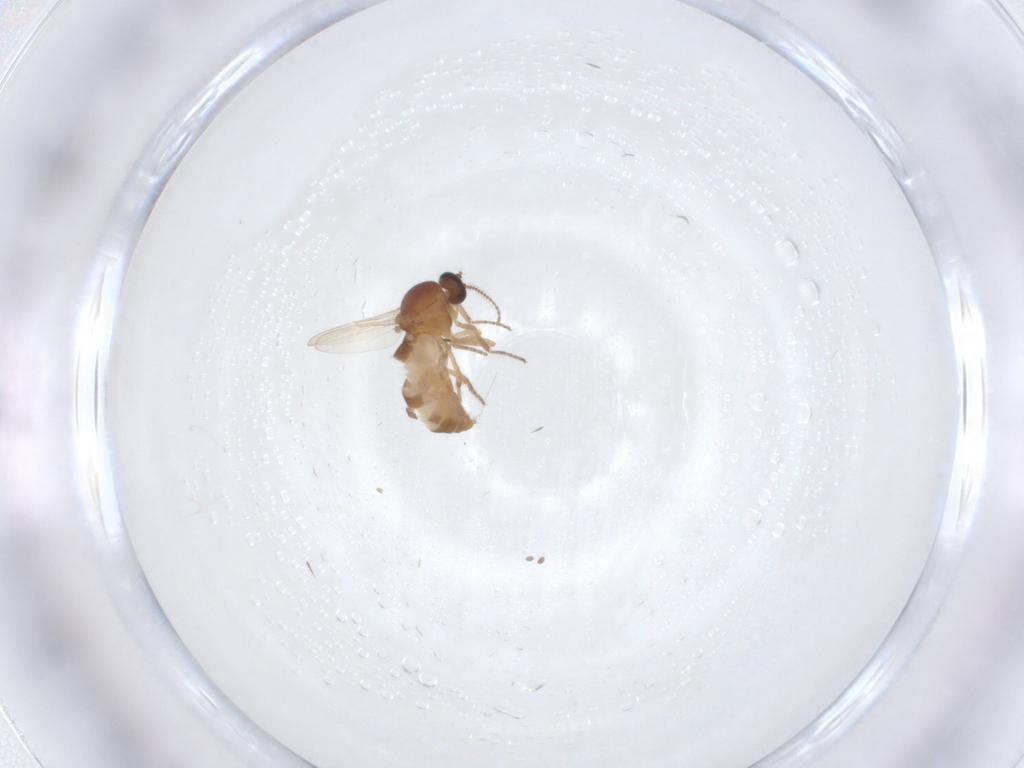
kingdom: Animalia
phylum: Arthropoda
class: Insecta
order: Diptera
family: Ceratopogonidae
